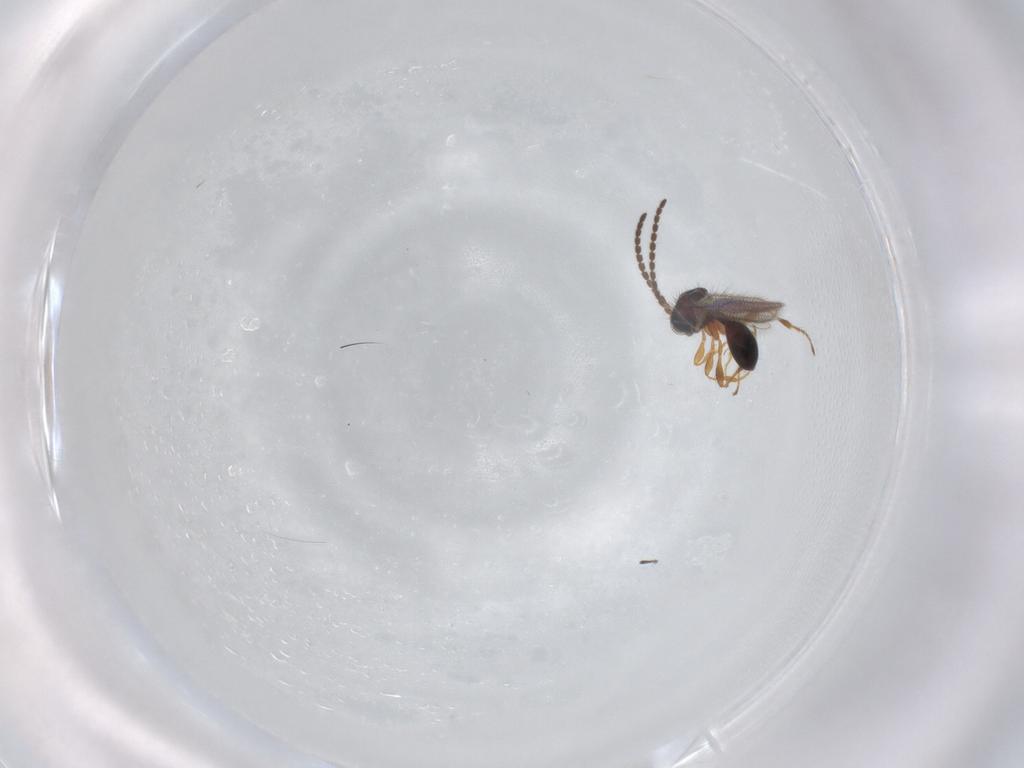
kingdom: Animalia
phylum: Arthropoda
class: Insecta
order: Hymenoptera
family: Diapriidae
